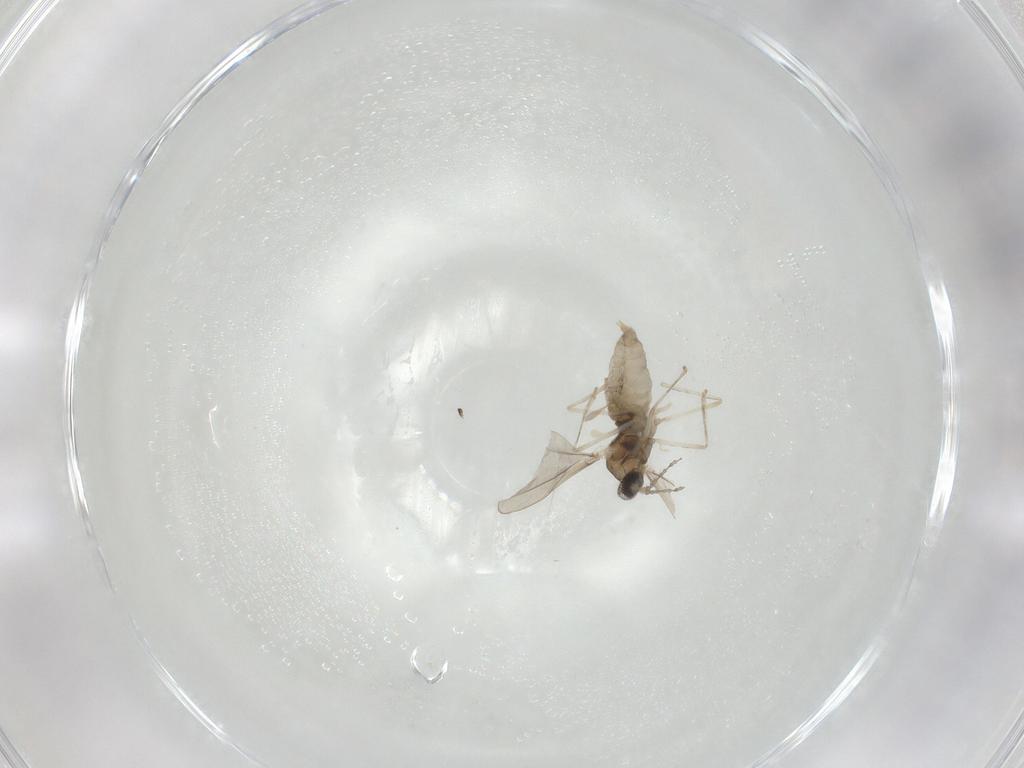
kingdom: Animalia
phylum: Arthropoda
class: Insecta
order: Diptera
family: Cecidomyiidae
